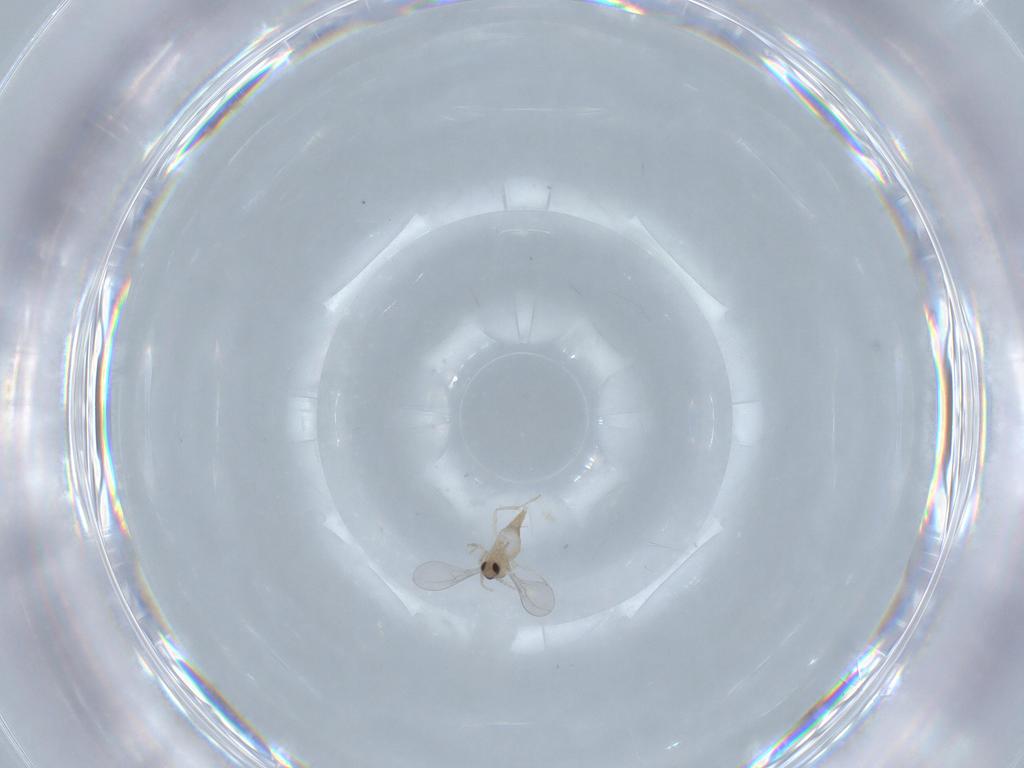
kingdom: Animalia
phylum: Arthropoda
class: Insecta
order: Diptera
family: Cecidomyiidae
